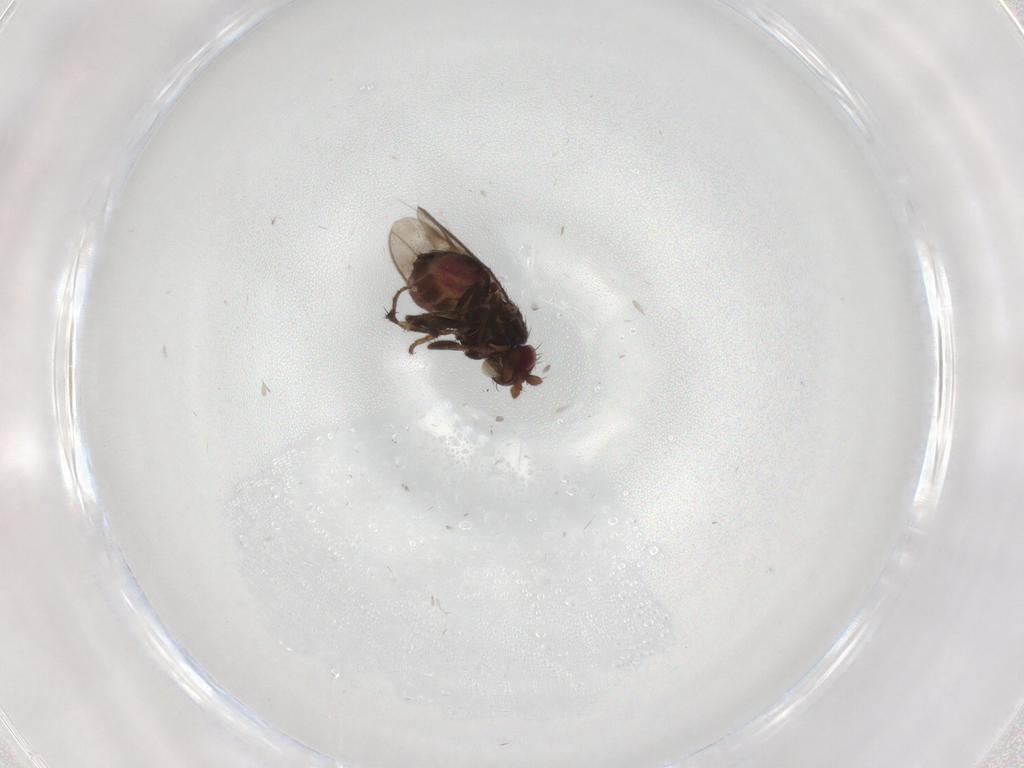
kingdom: Animalia
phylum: Arthropoda
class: Insecta
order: Diptera
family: Sphaeroceridae
